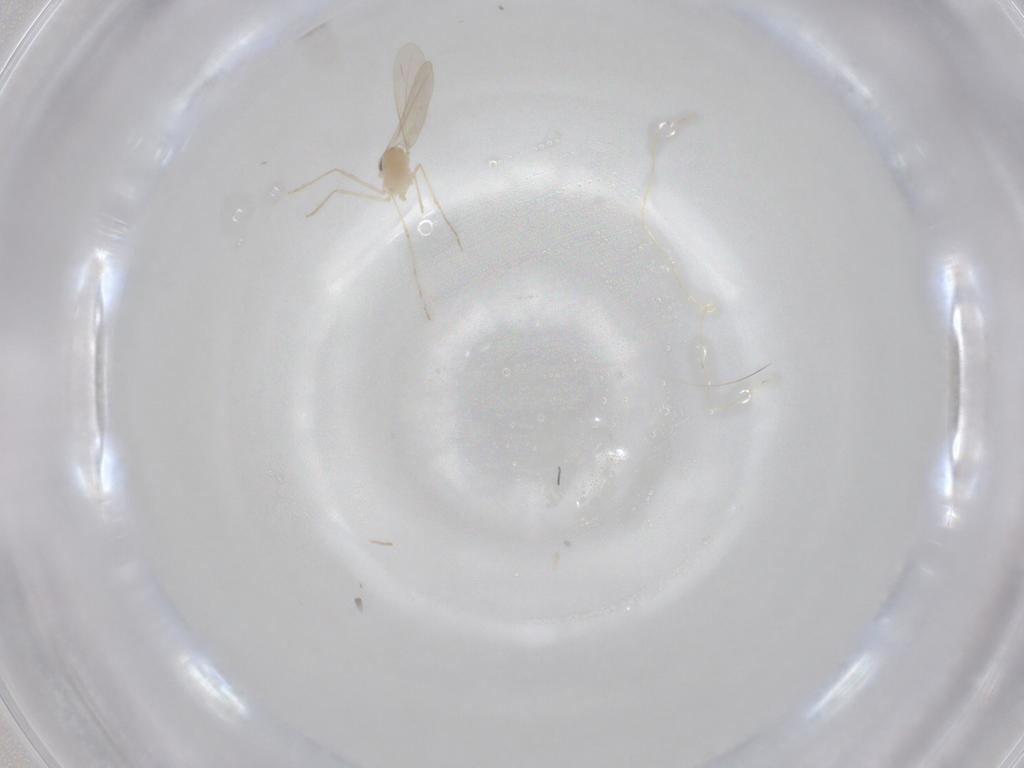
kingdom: Animalia
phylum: Arthropoda
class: Insecta
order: Diptera
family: Cecidomyiidae
